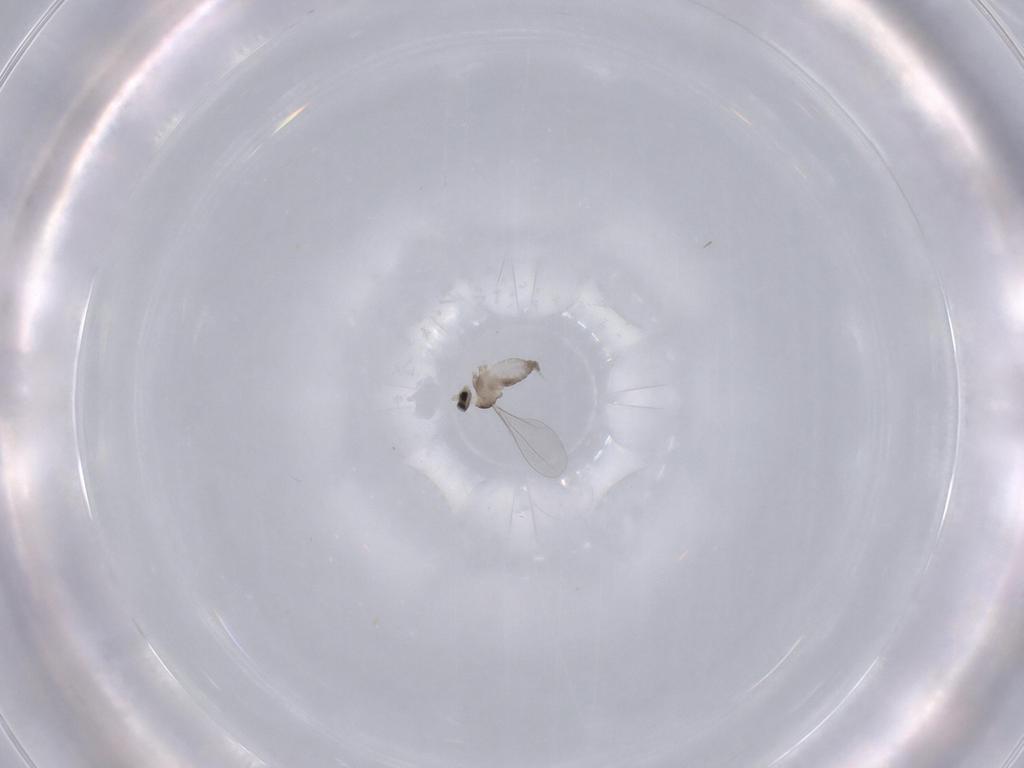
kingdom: Animalia
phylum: Arthropoda
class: Insecta
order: Diptera
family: Cecidomyiidae
